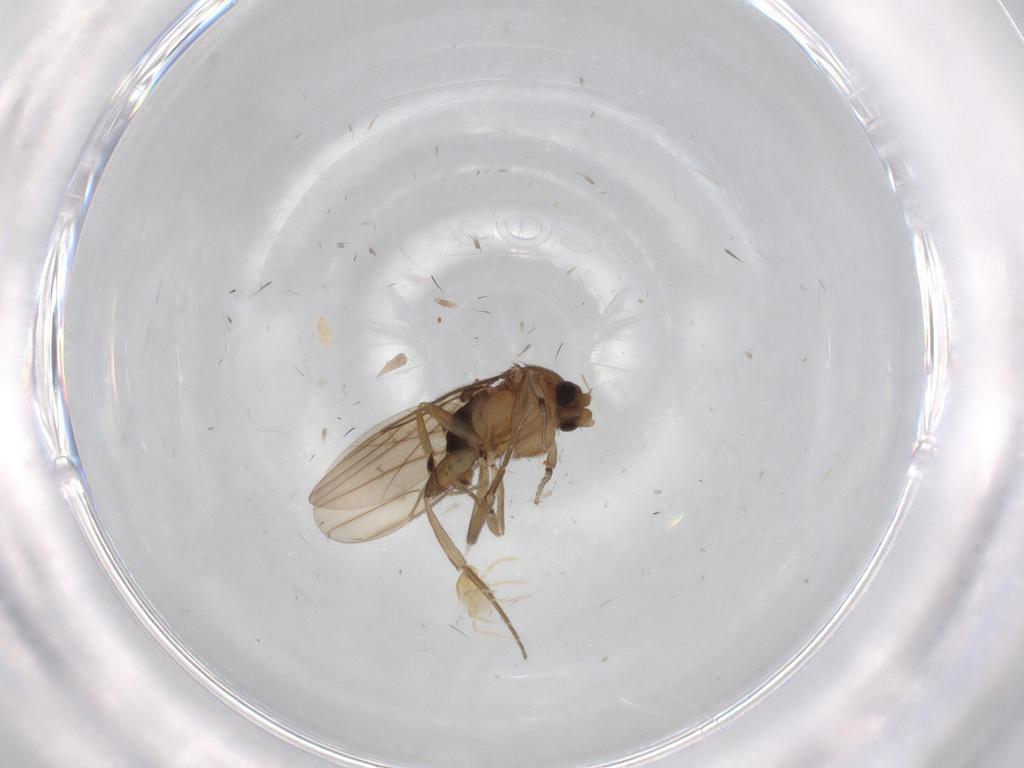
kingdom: Animalia
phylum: Arthropoda
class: Insecta
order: Diptera
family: Phoridae
